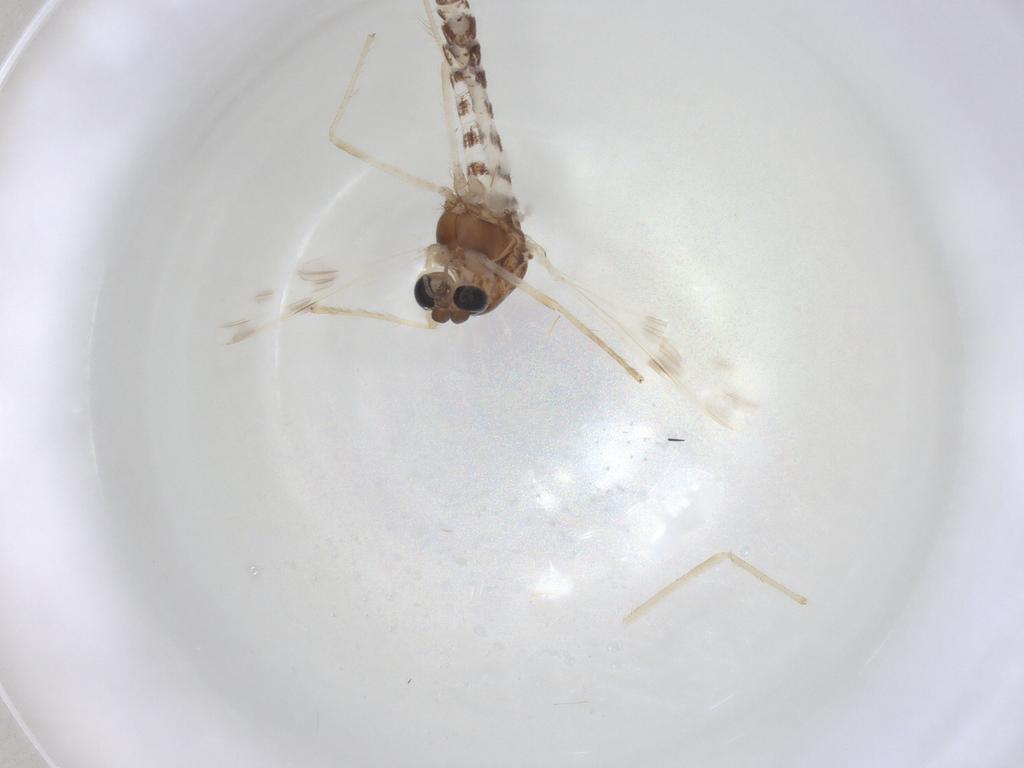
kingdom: Animalia
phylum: Arthropoda
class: Insecta
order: Diptera
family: Chironomidae
